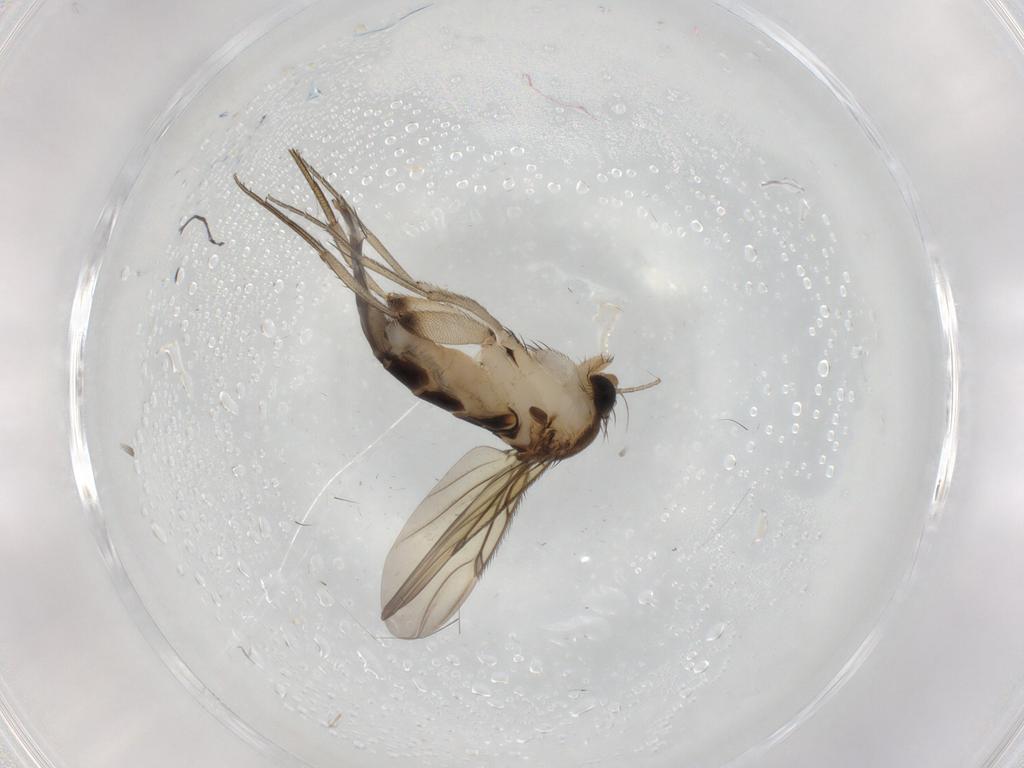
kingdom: Animalia
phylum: Arthropoda
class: Insecta
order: Diptera
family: Phoridae
